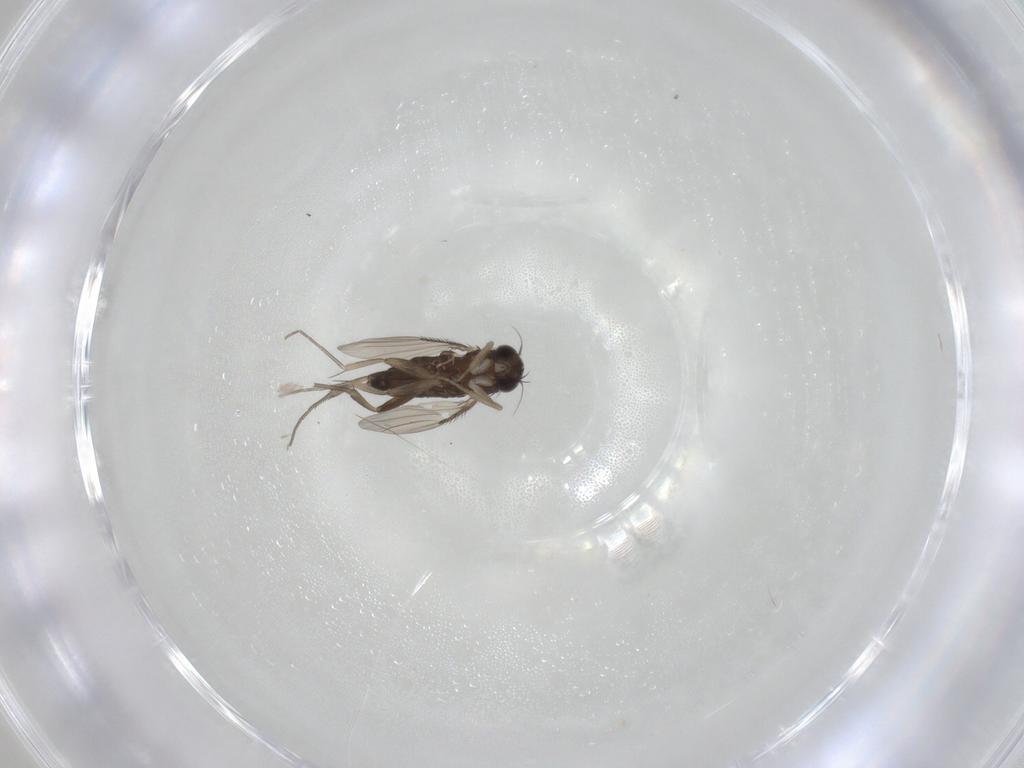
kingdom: Animalia
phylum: Arthropoda
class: Insecta
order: Diptera
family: Phoridae
